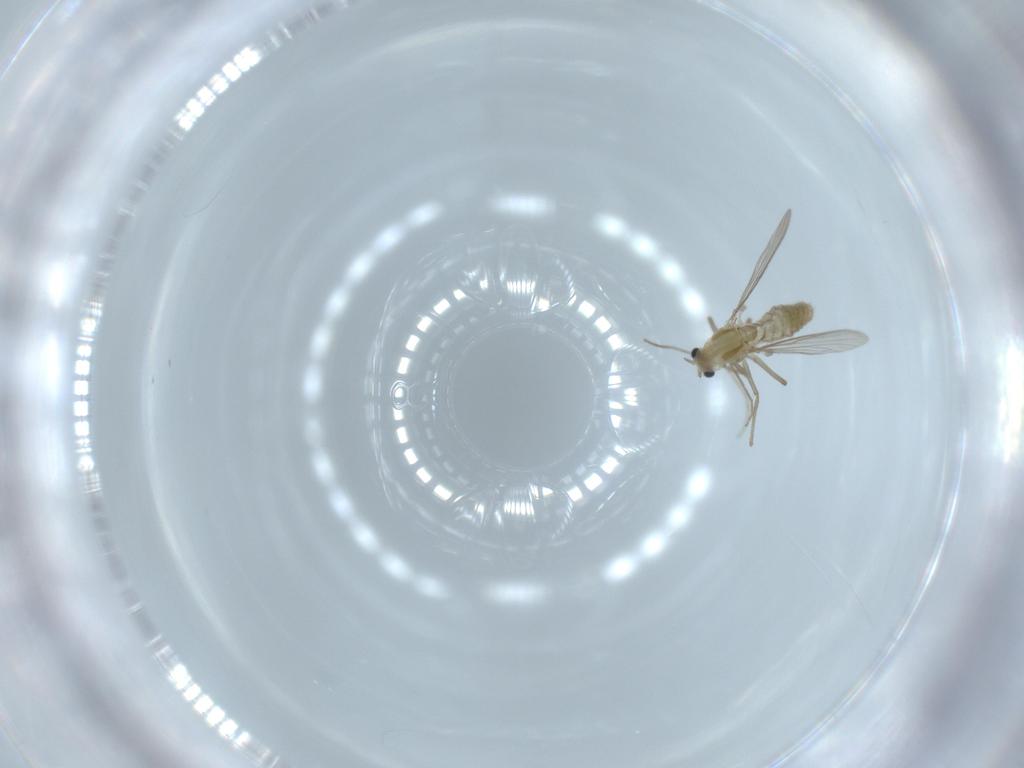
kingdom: Animalia
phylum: Arthropoda
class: Insecta
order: Diptera
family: Chironomidae
